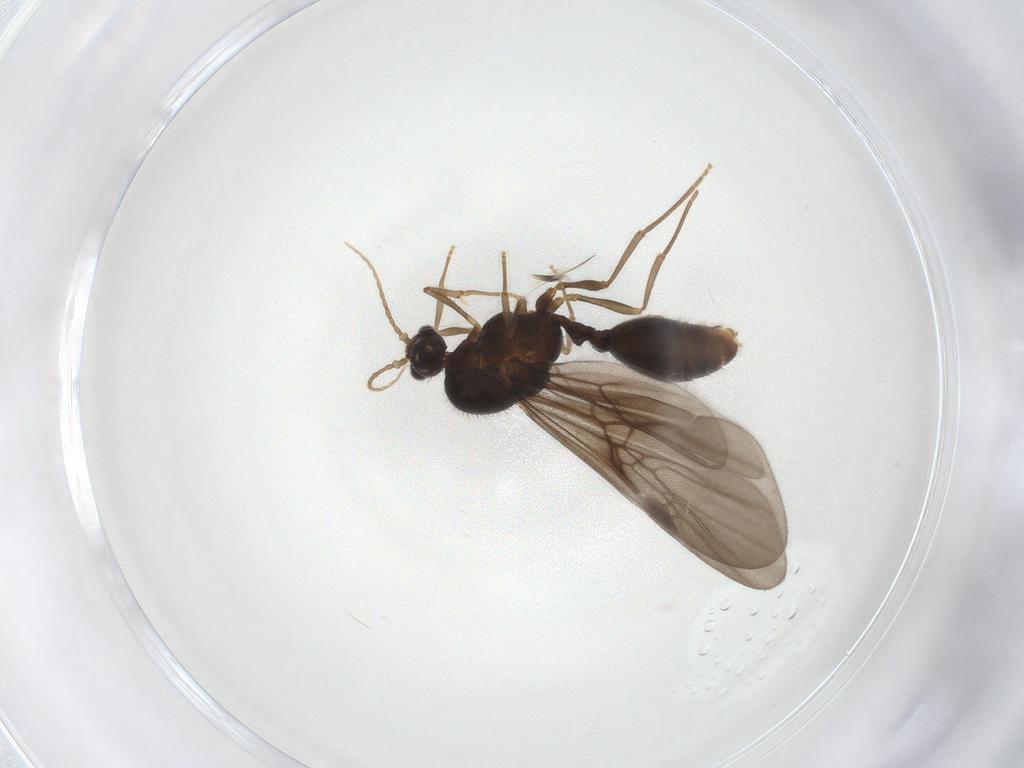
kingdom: Animalia
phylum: Arthropoda
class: Insecta
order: Hymenoptera
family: Formicidae
